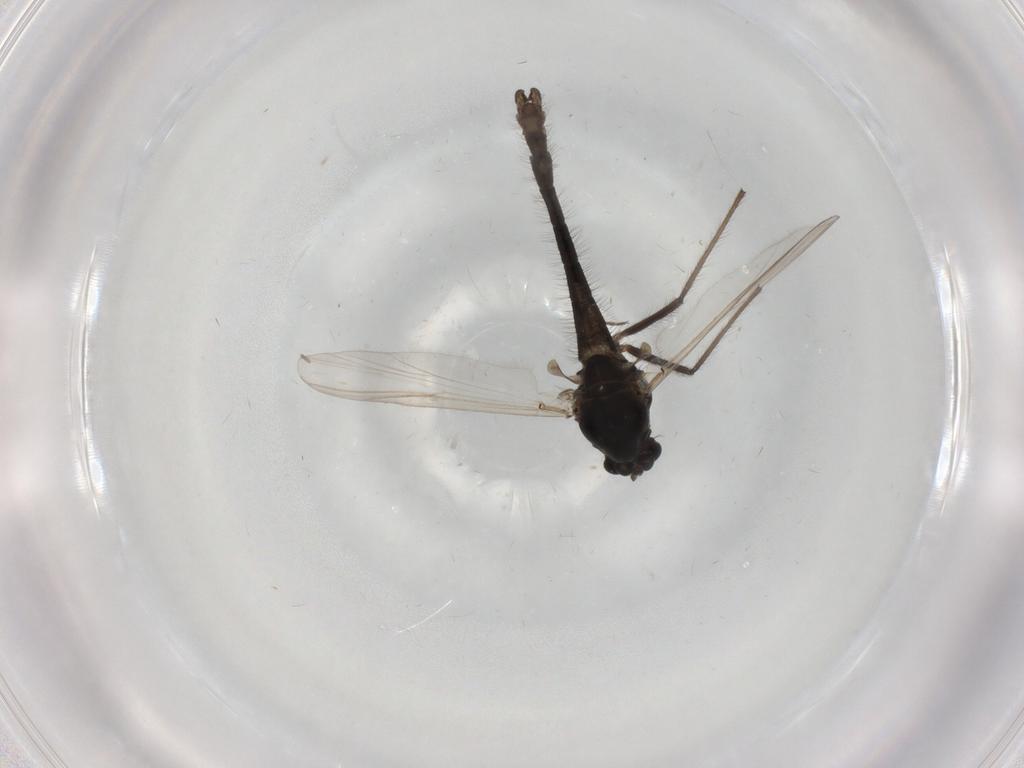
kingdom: Animalia
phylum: Arthropoda
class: Insecta
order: Diptera
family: Chironomidae
